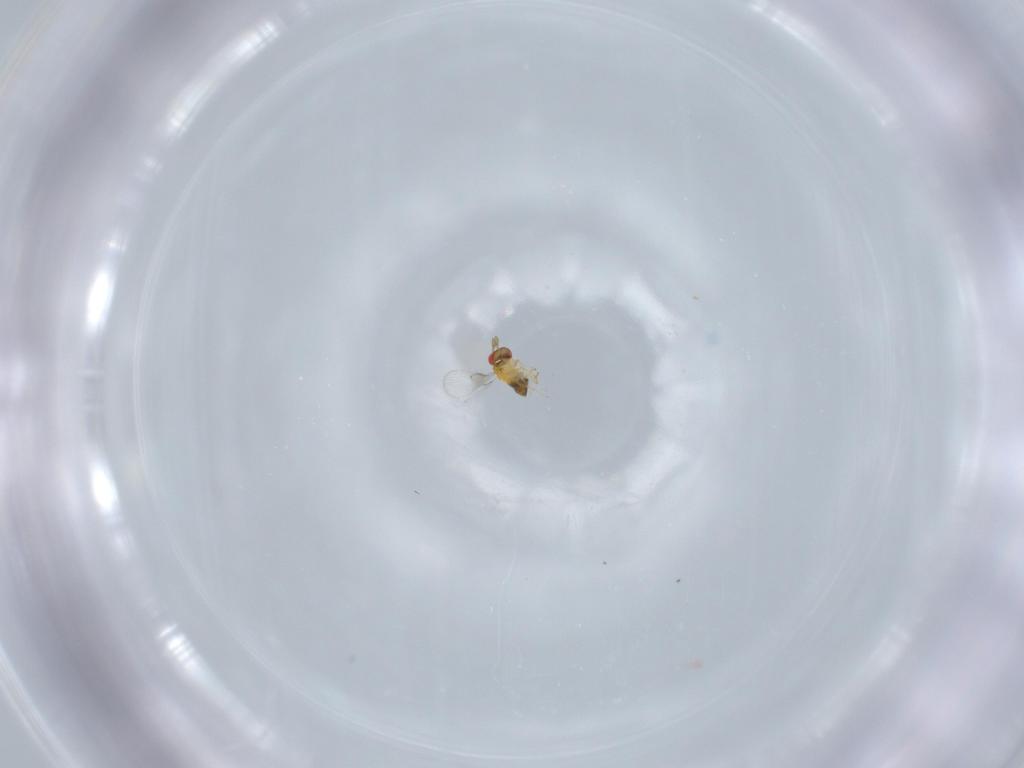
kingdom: Animalia
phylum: Arthropoda
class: Insecta
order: Hymenoptera
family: Trichogrammatidae
